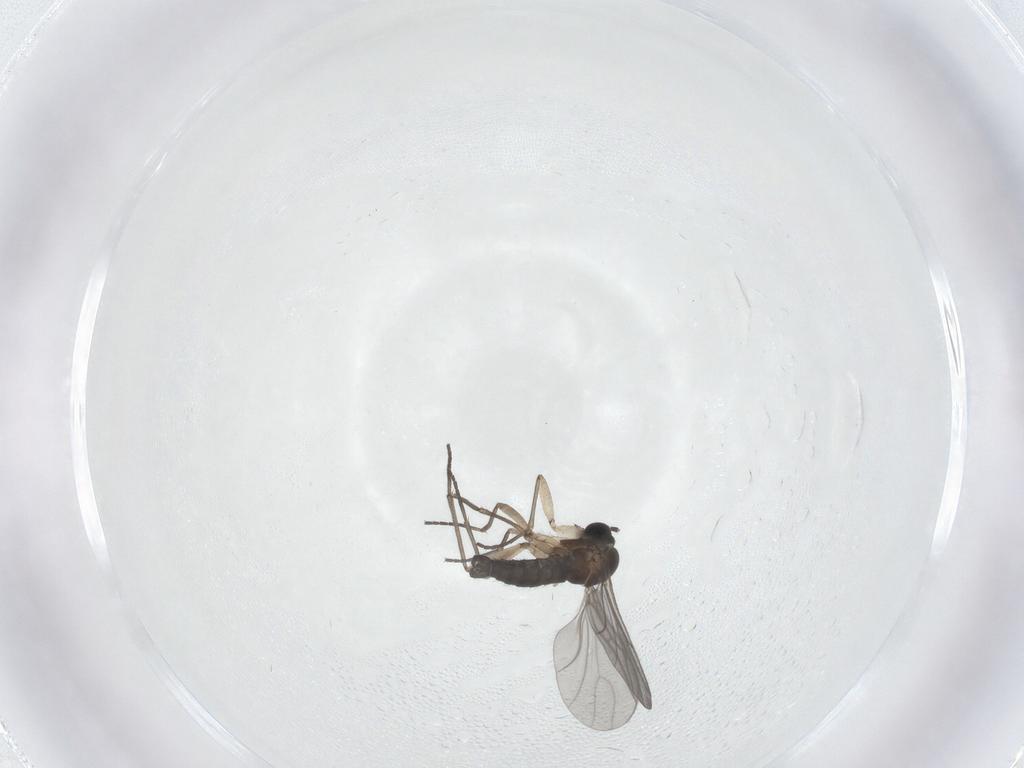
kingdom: Animalia
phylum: Arthropoda
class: Insecta
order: Diptera
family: Sciaridae
